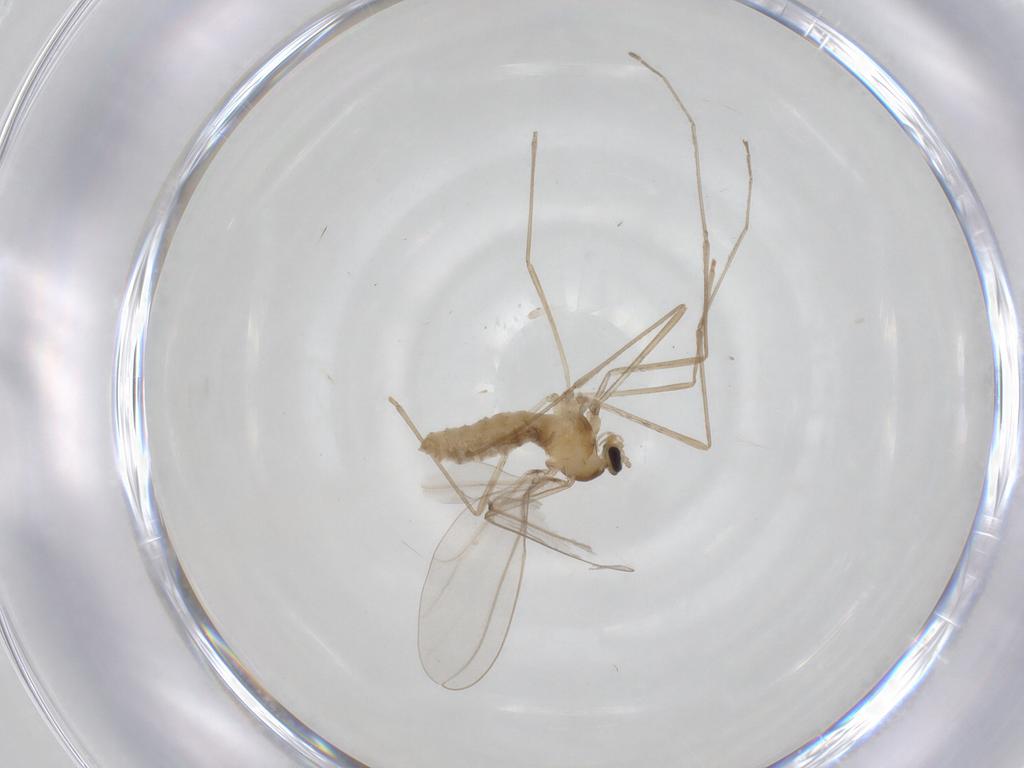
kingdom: Animalia
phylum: Arthropoda
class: Insecta
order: Diptera
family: Cecidomyiidae
